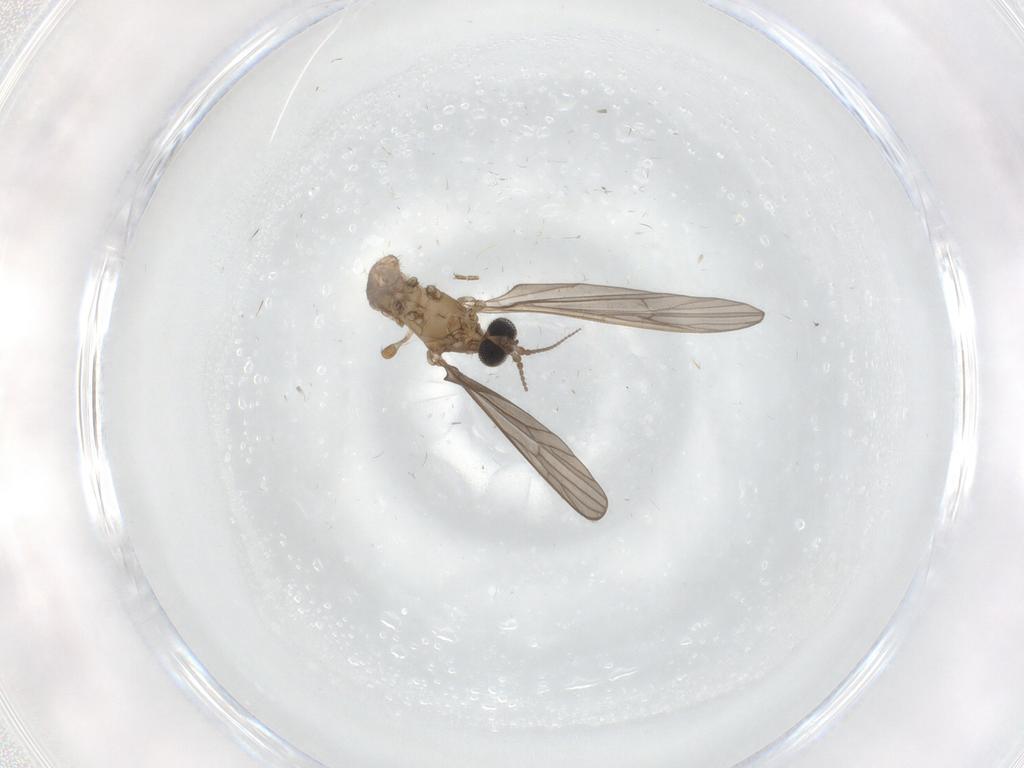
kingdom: Animalia
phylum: Arthropoda
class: Insecta
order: Diptera
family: Limoniidae
